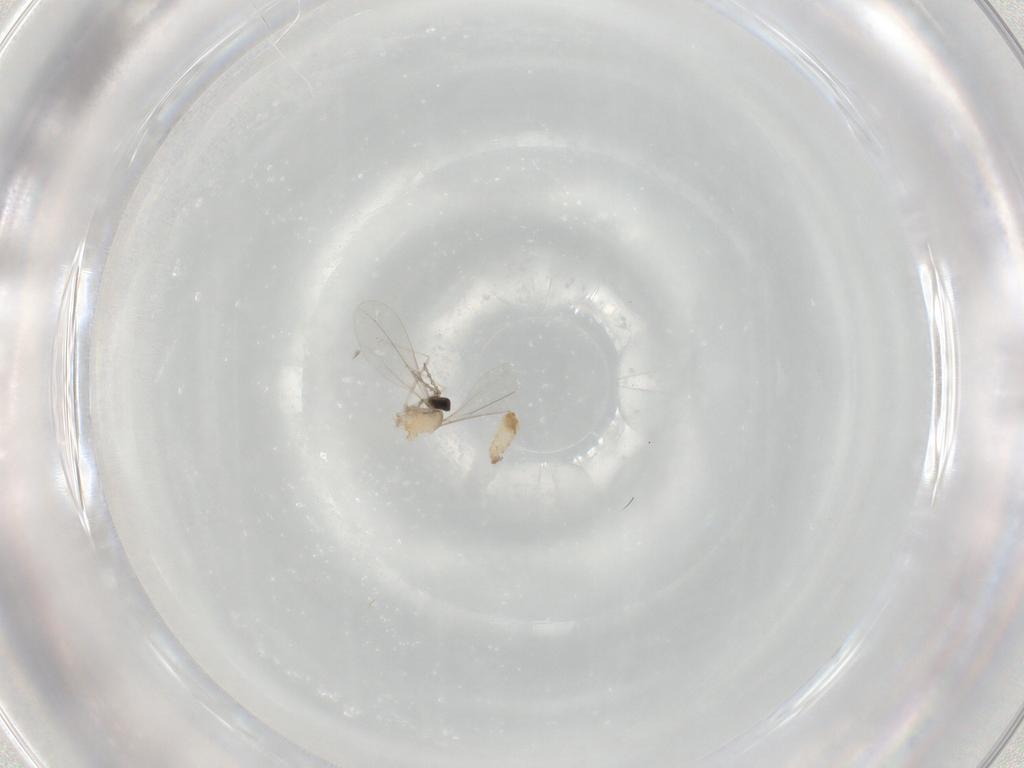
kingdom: Animalia
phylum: Arthropoda
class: Insecta
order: Diptera
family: Cecidomyiidae
